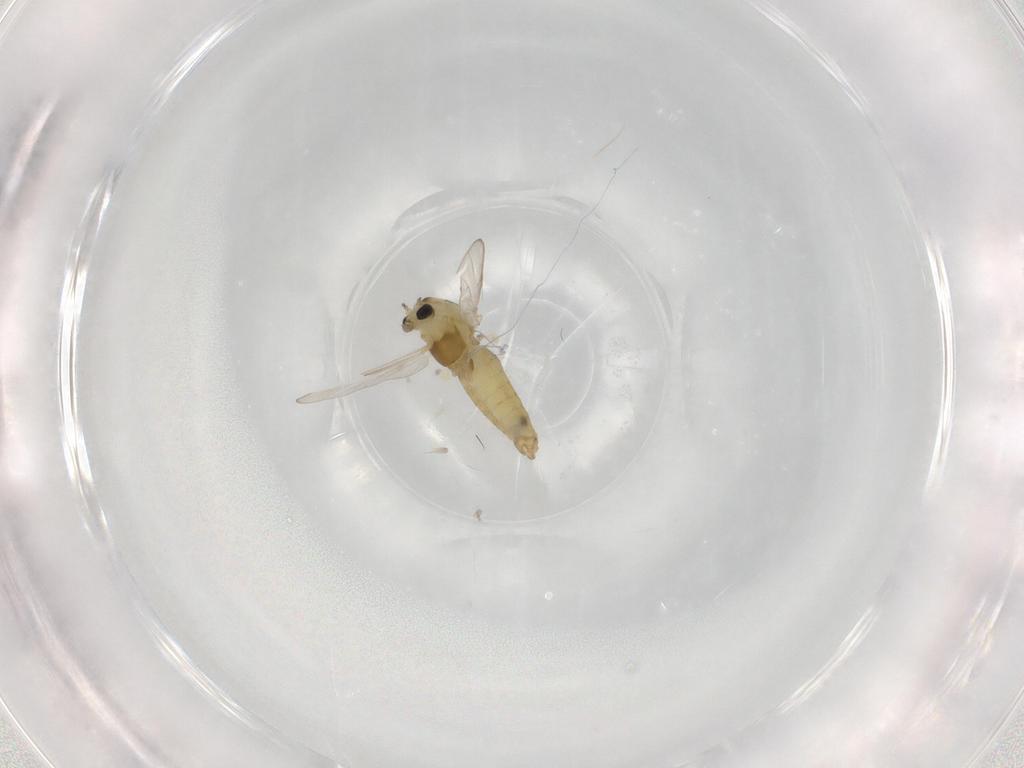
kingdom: Animalia
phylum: Arthropoda
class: Insecta
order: Diptera
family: Chironomidae
